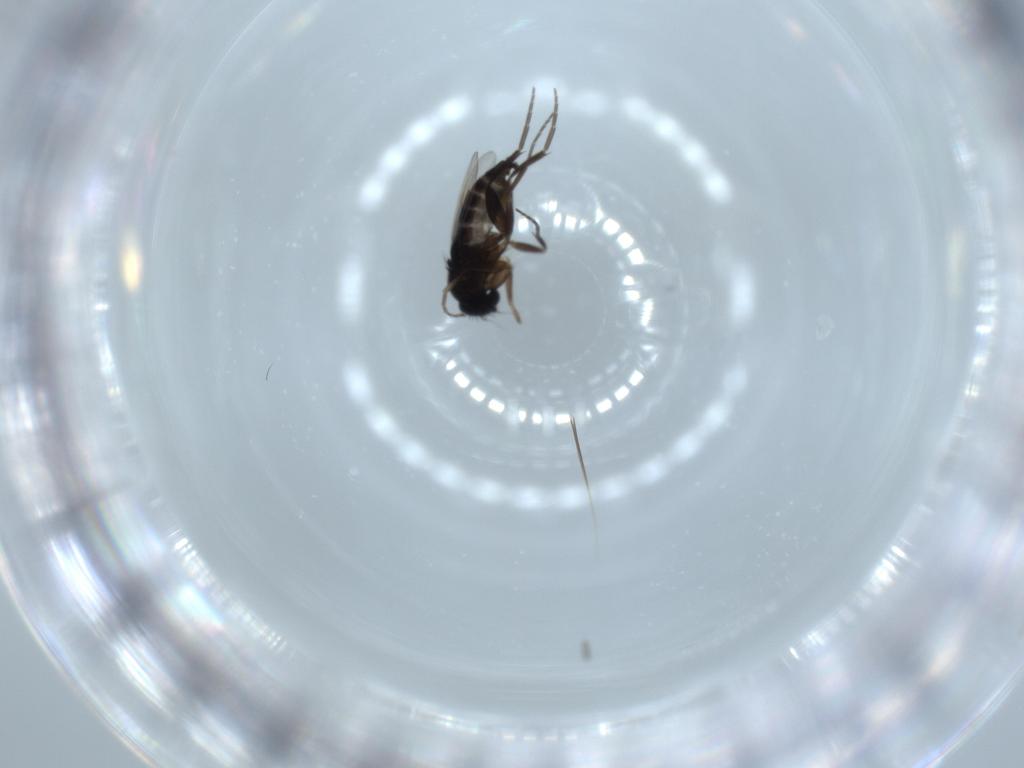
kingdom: Animalia
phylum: Arthropoda
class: Insecta
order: Diptera
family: Phoridae
